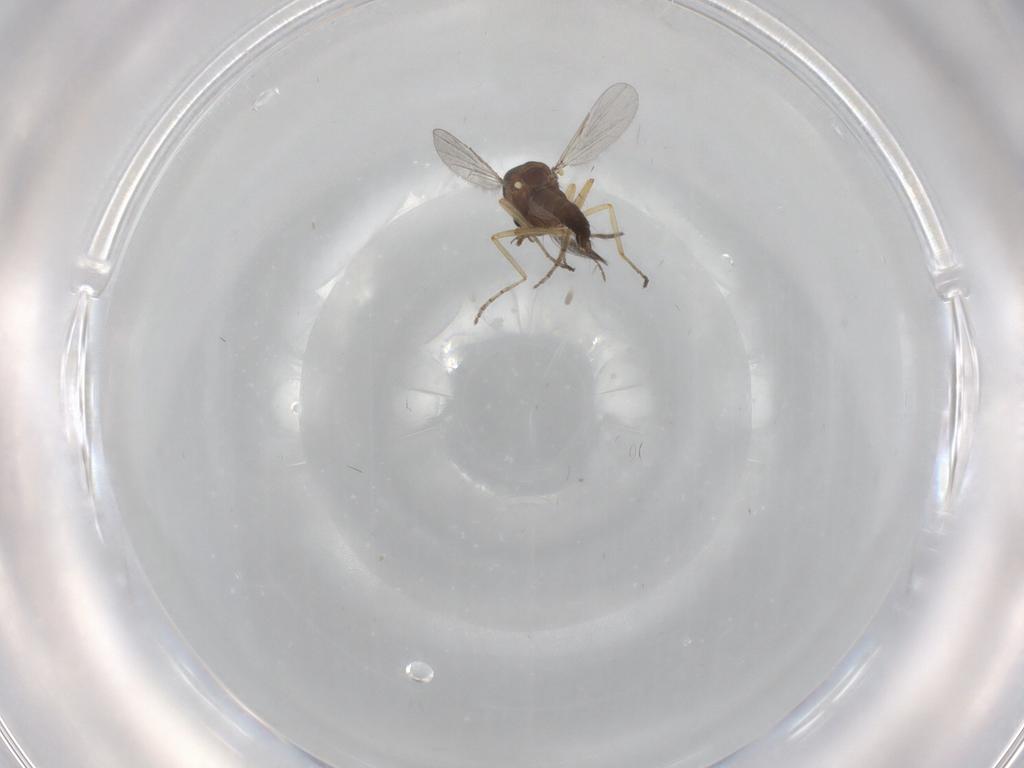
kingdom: Animalia
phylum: Arthropoda
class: Insecta
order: Diptera
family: Ceratopogonidae
